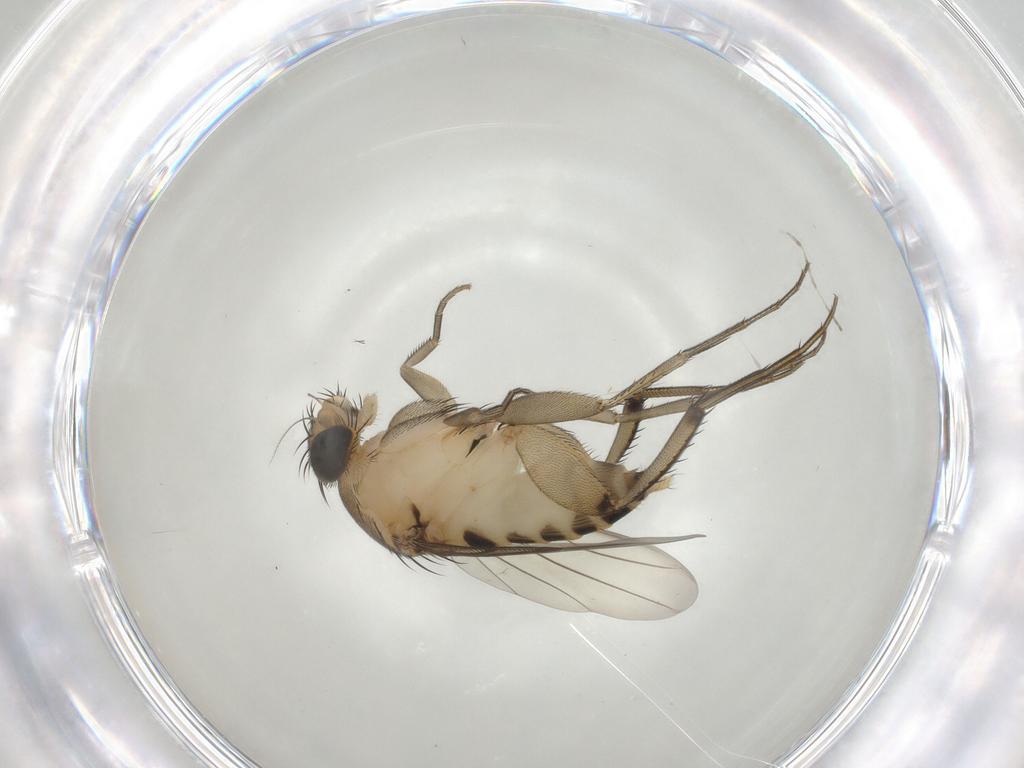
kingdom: Animalia
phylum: Arthropoda
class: Insecta
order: Diptera
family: Phoridae
